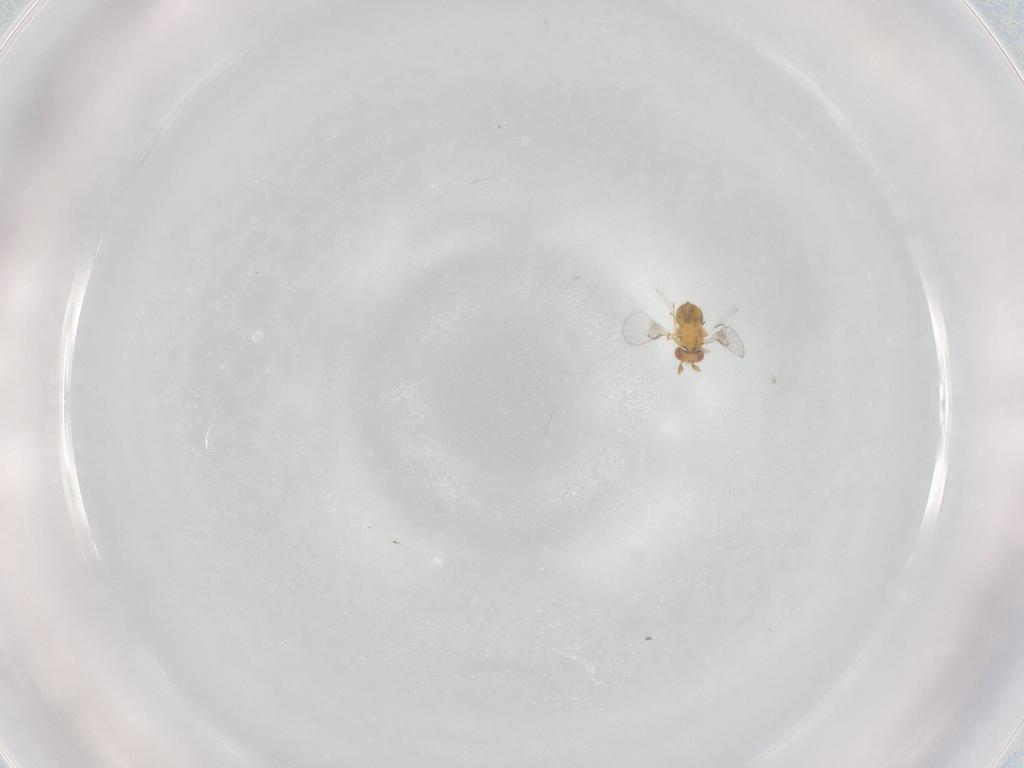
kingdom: Animalia
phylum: Arthropoda
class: Insecta
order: Hymenoptera
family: Trichogrammatidae
